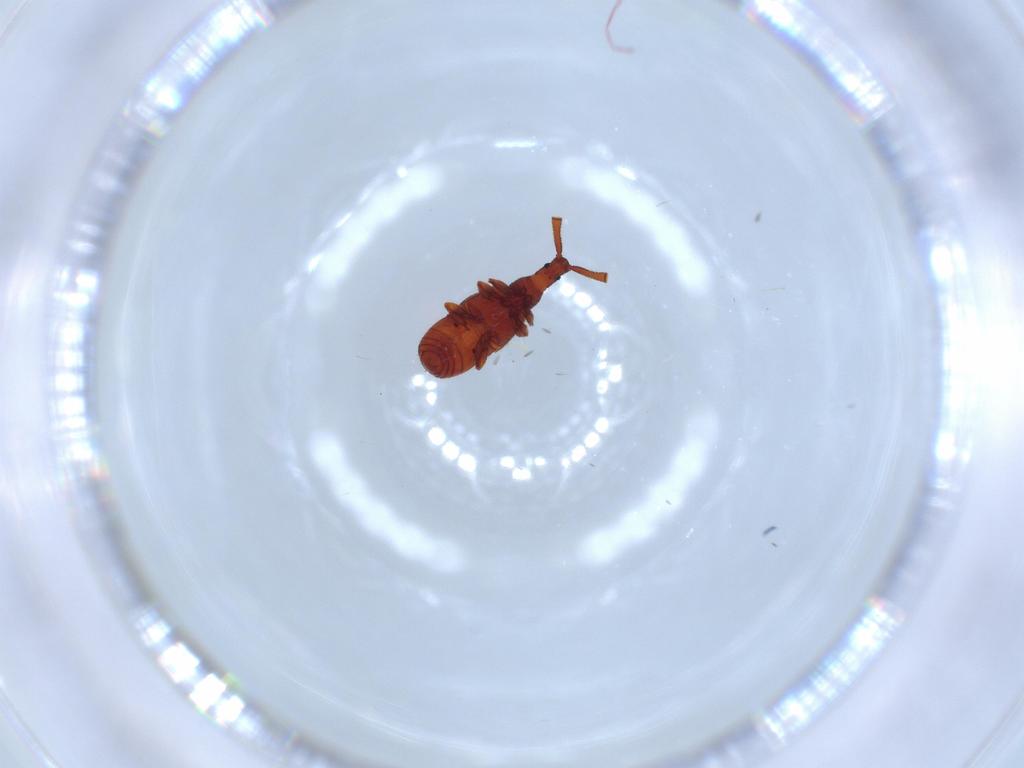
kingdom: Animalia
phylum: Arthropoda
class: Insecta
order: Coleoptera
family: Staphylinidae
